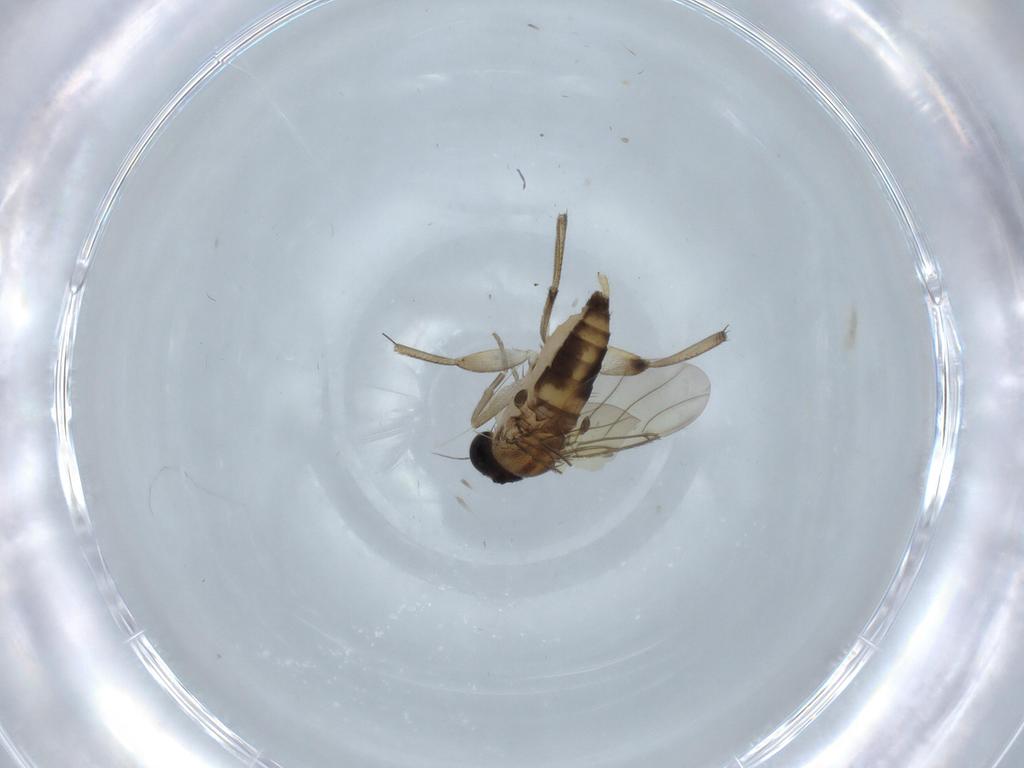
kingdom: Animalia
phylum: Arthropoda
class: Insecta
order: Diptera
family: Phoridae
